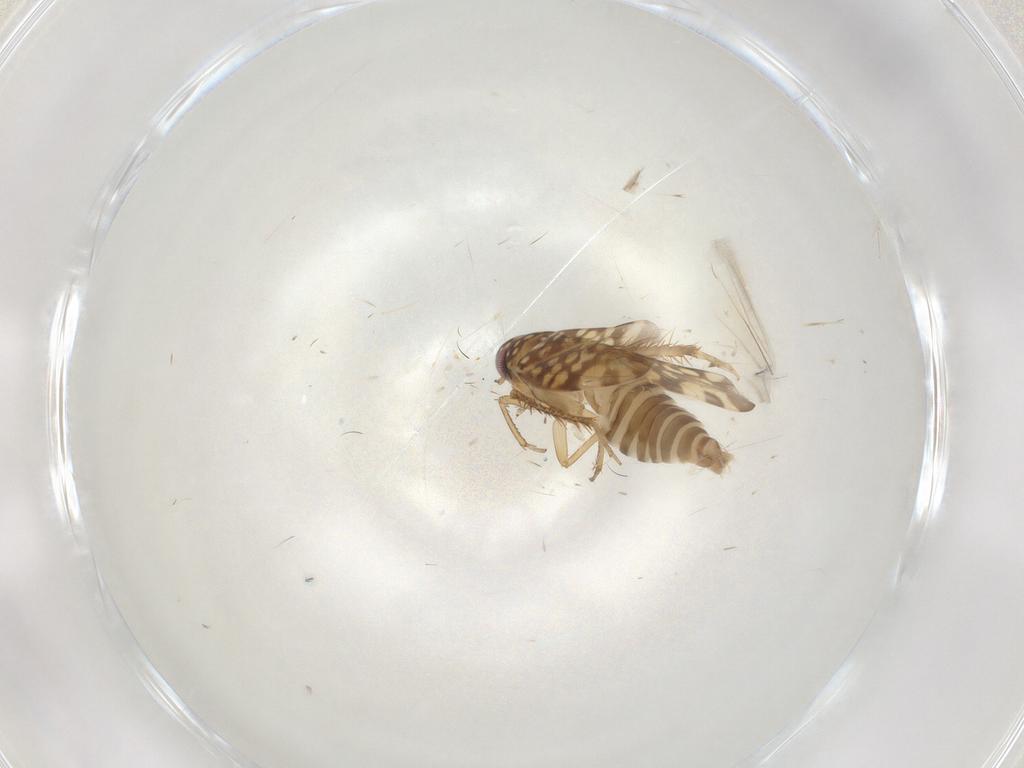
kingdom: Animalia
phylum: Arthropoda
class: Insecta
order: Hemiptera
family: Cicadellidae
